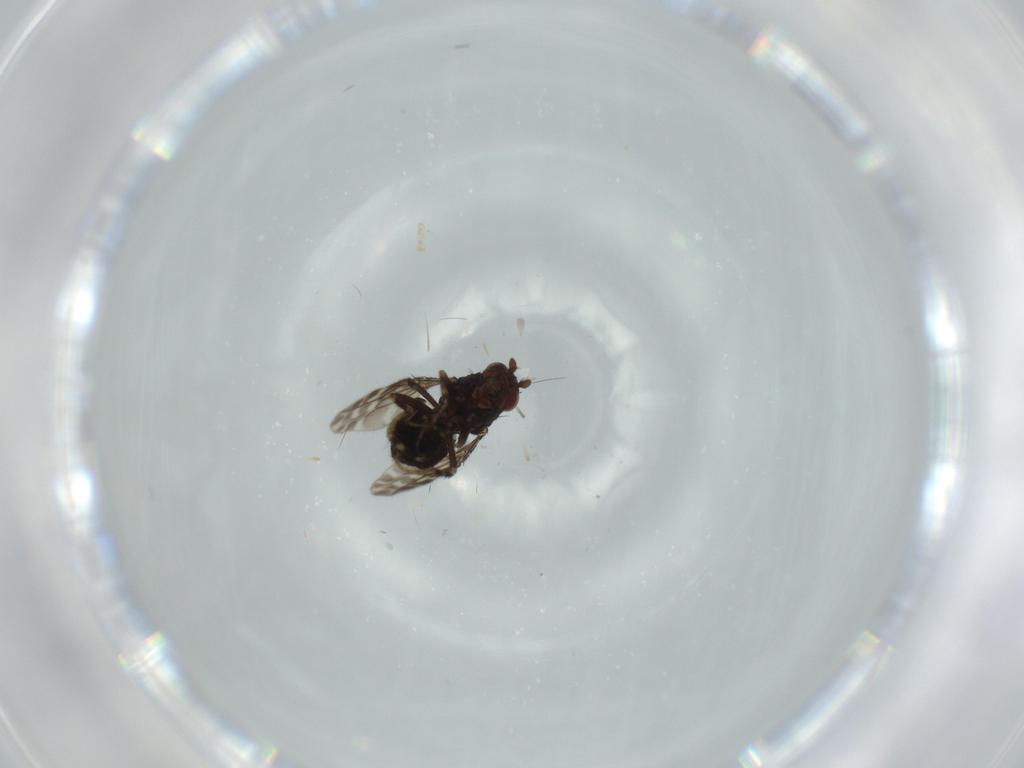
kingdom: Animalia
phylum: Arthropoda
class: Insecta
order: Diptera
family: Sphaeroceridae
